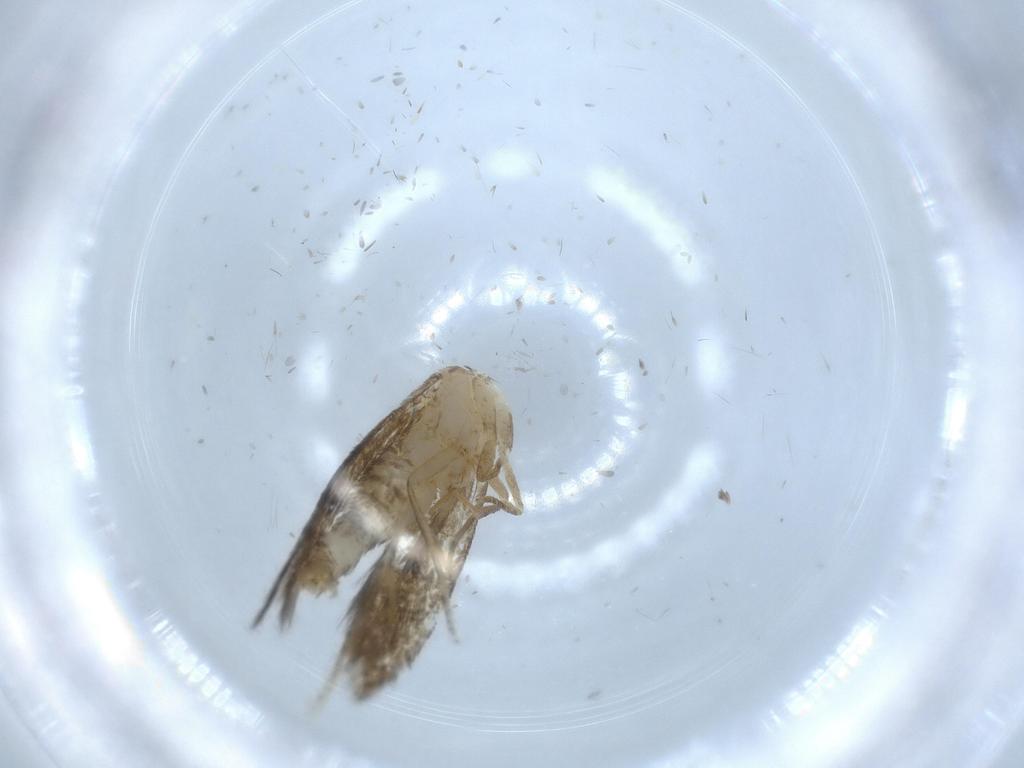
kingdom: Animalia
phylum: Arthropoda
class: Insecta
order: Lepidoptera
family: Tineidae
